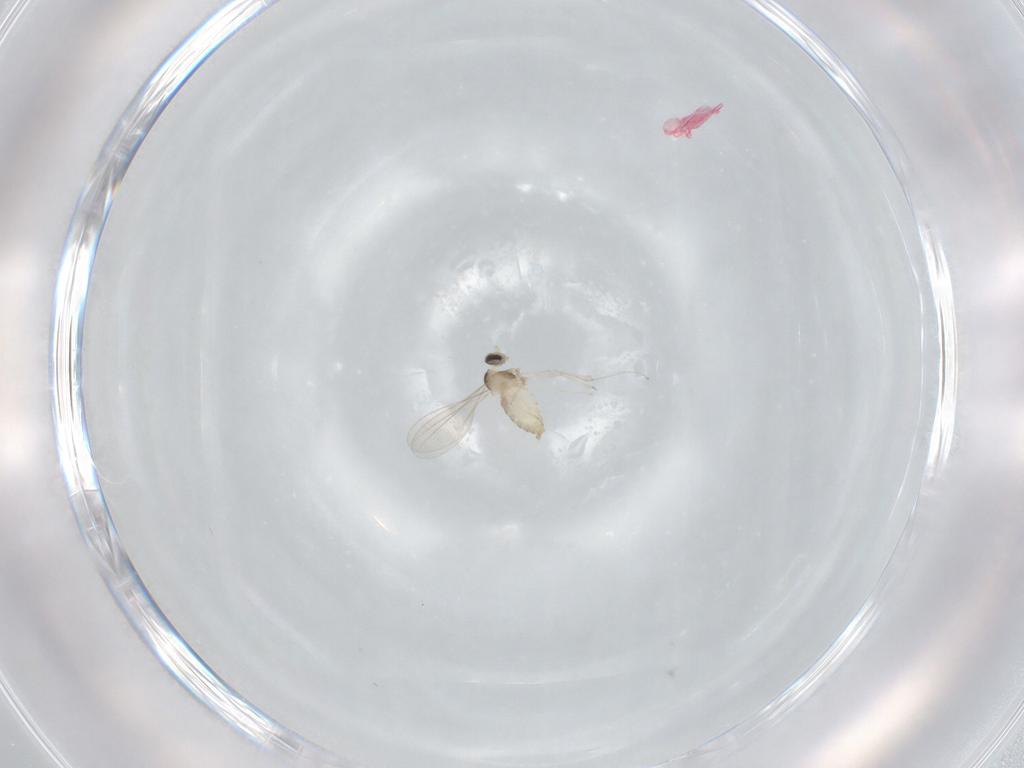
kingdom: Animalia
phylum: Arthropoda
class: Insecta
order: Diptera
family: Cecidomyiidae
